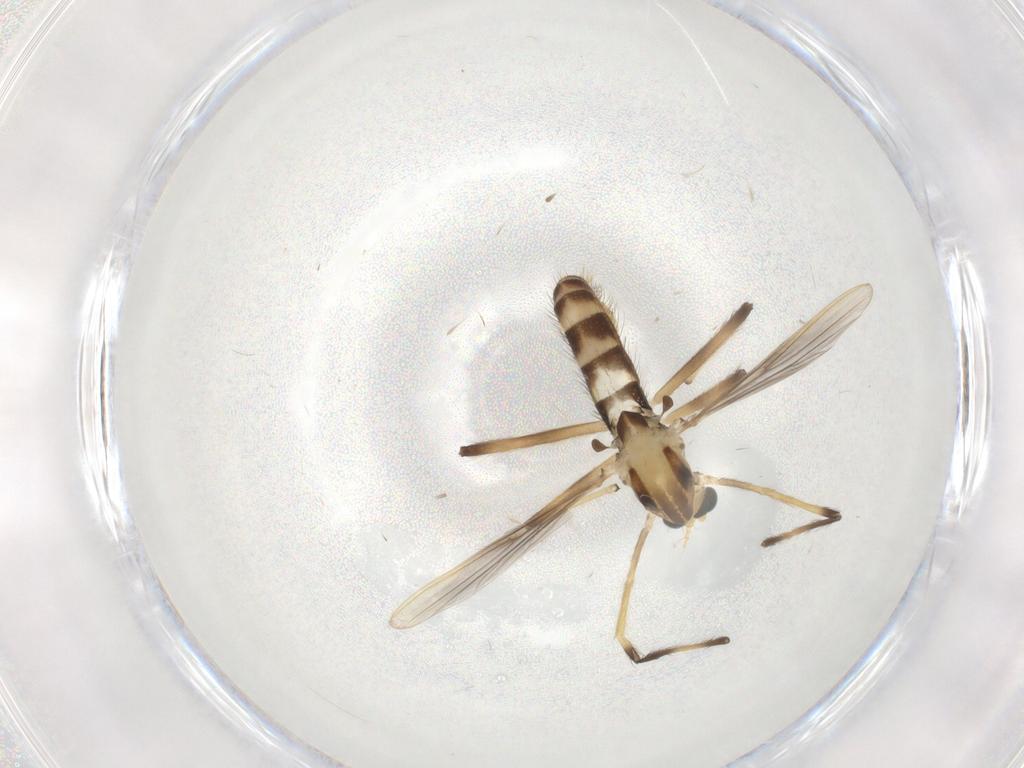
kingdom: Animalia
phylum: Arthropoda
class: Insecta
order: Diptera
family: Chironomidae
